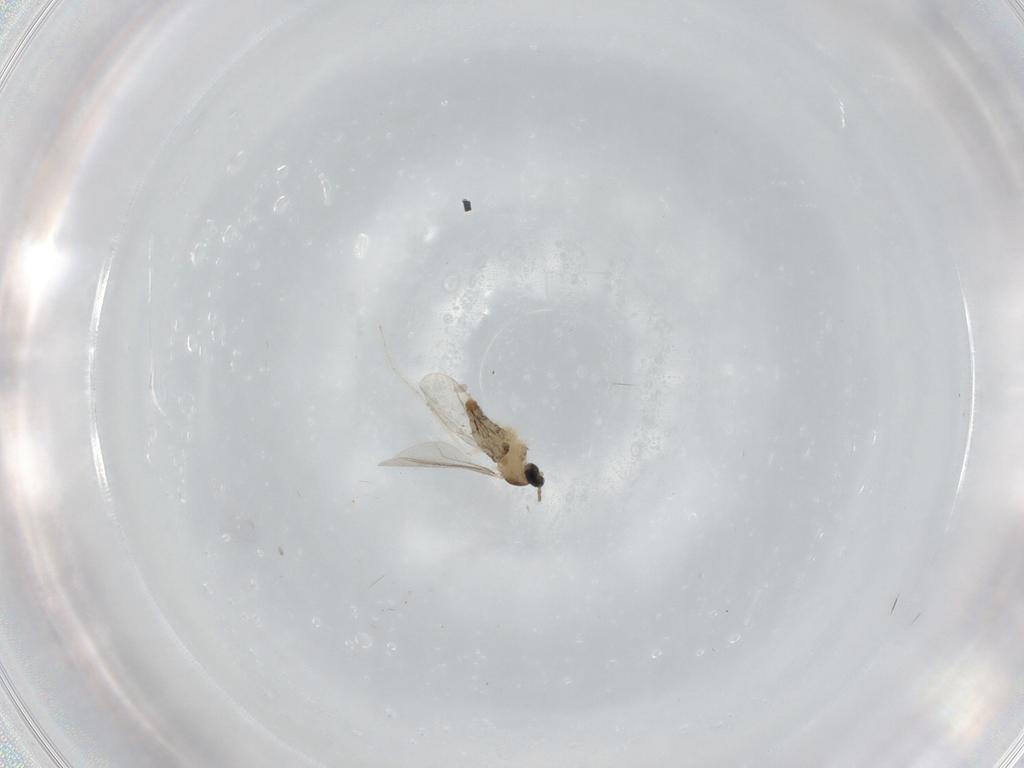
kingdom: Animalia
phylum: Arthropoda
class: Insecta
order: Diptera
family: Cecidomyiidae
